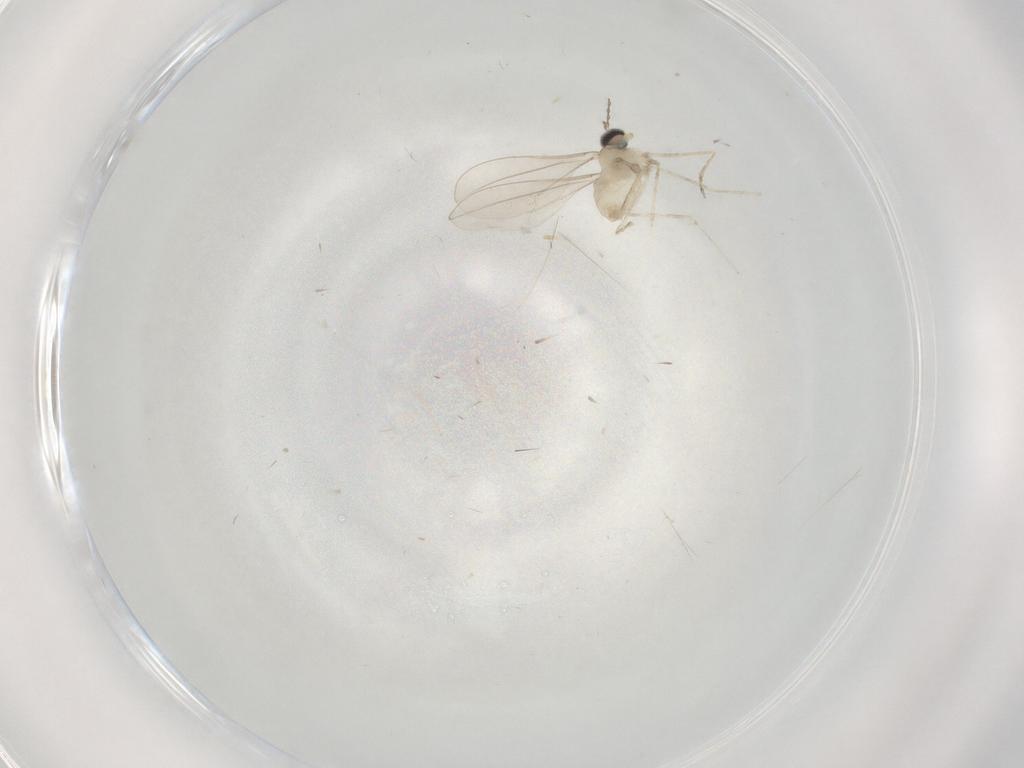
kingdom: Animalia
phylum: Arthropoda
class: Insecta
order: Diptera
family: Cecidomyiidae
